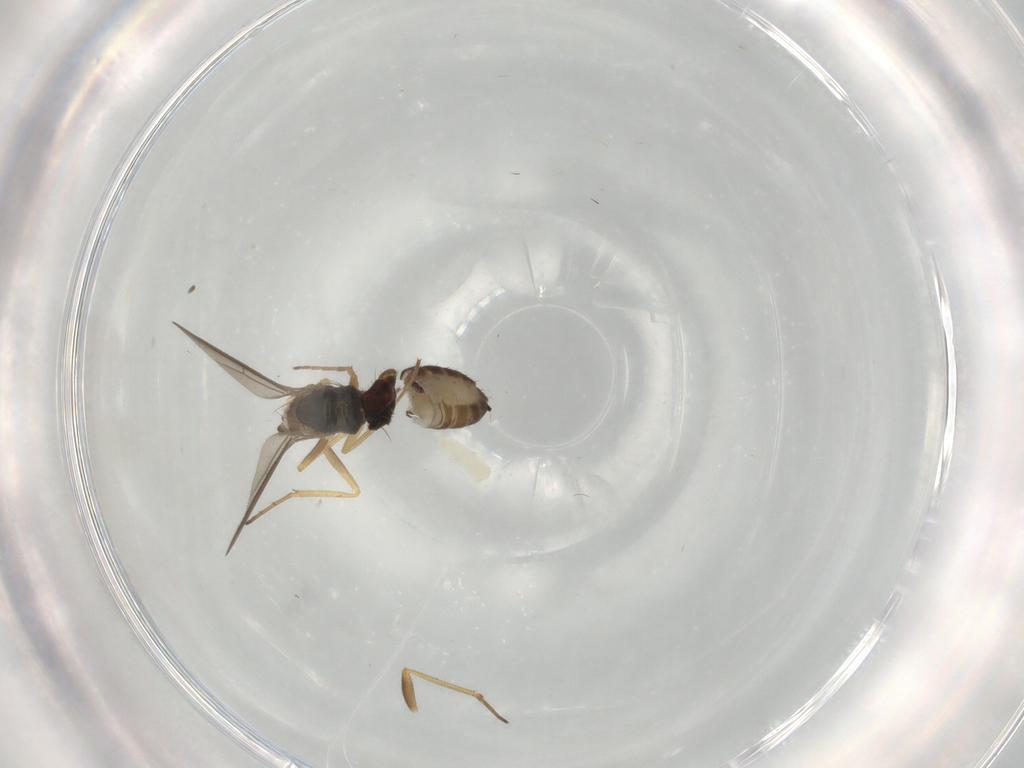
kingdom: Animalia
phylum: Arthropoda
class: Insecta
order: Diptera
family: Dolichopodidae
